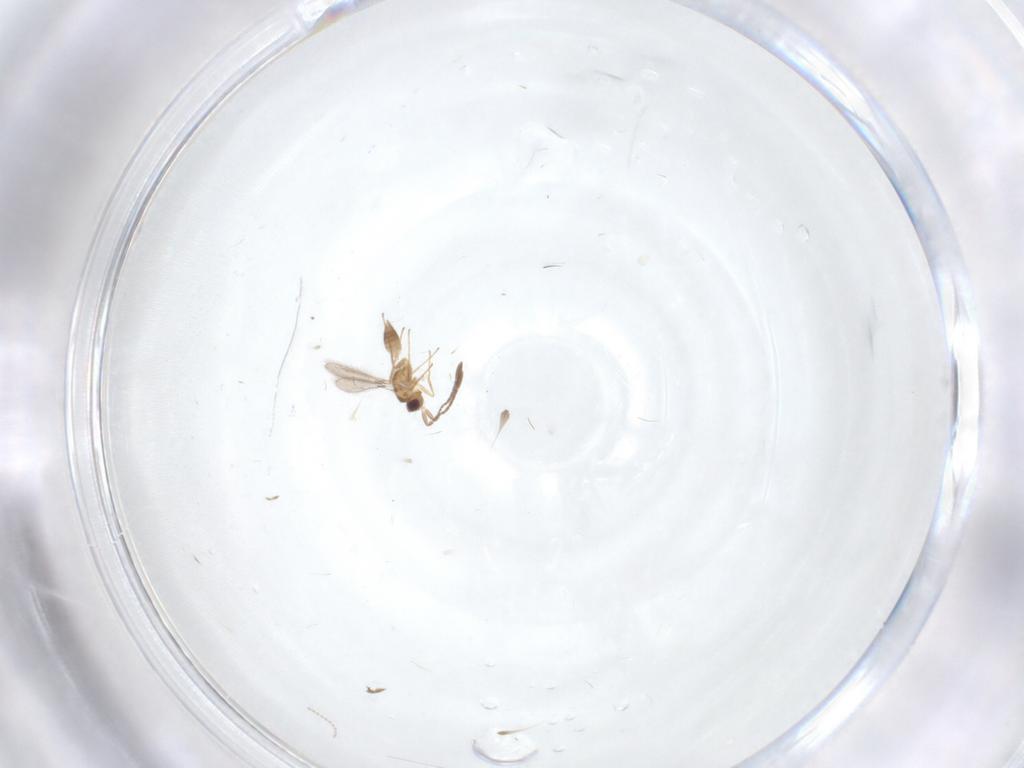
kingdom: Animalia
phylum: Arthropoda
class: Insecta
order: Hymenoptera
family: Mymaridae
